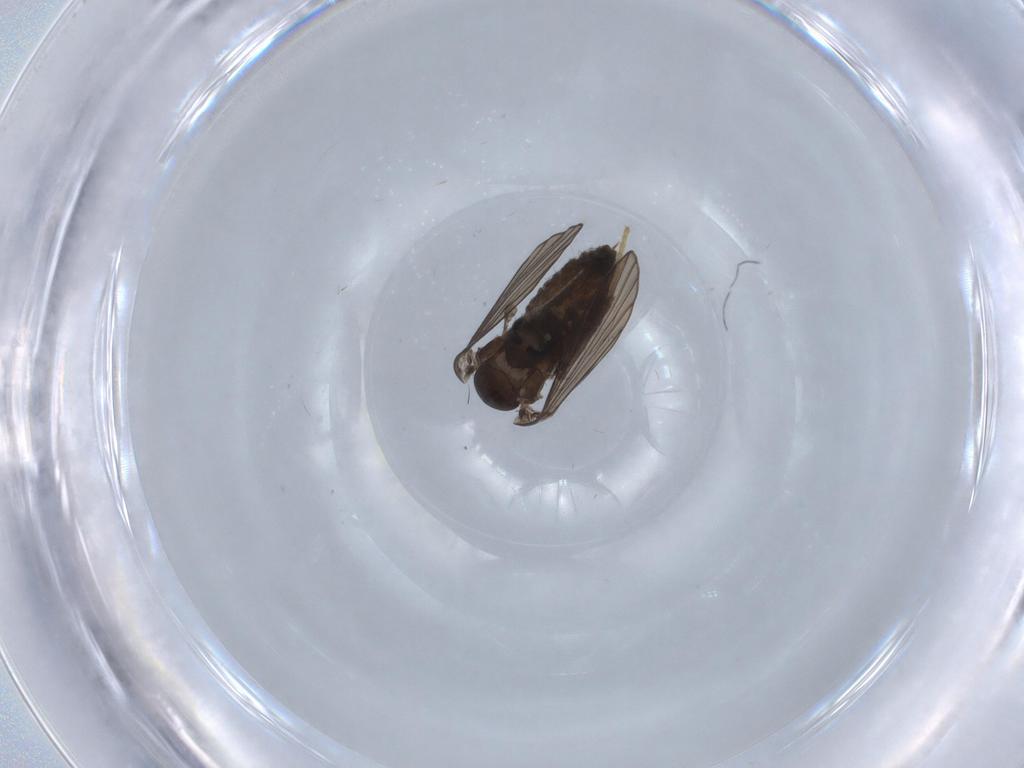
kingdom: Animalia
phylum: Arthropoda
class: Insecta
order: Diptera
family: Psychodidae
